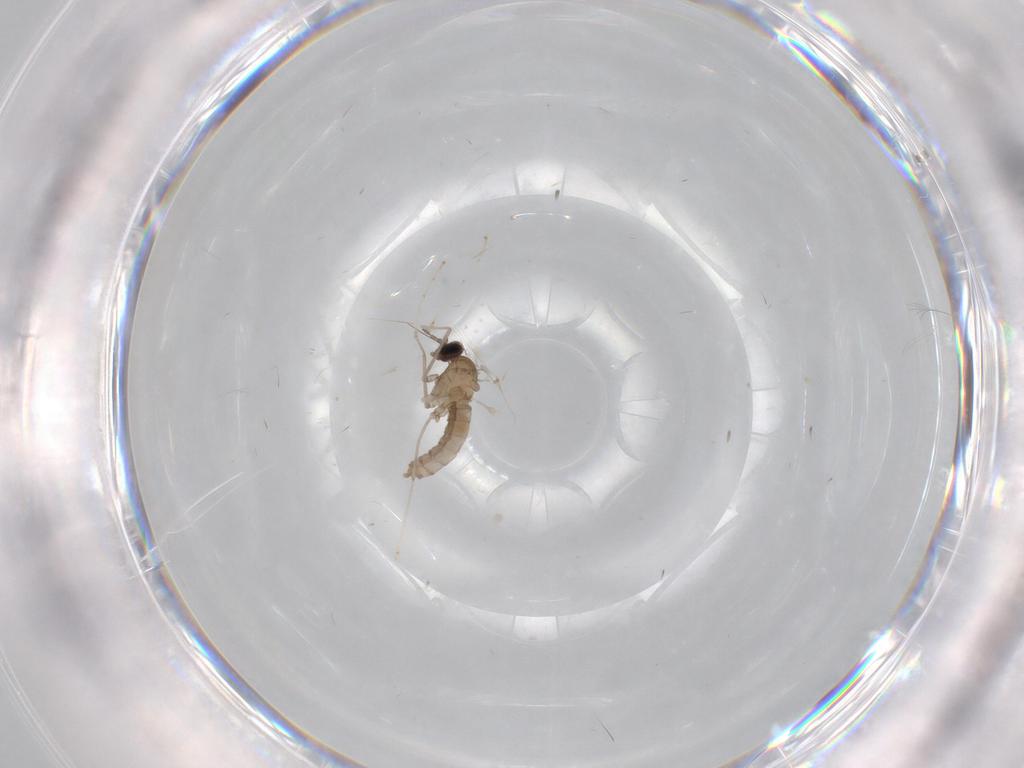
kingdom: Animalia
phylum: Arthropoda
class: Insecta
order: Diptera
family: Cecidomyiidae
